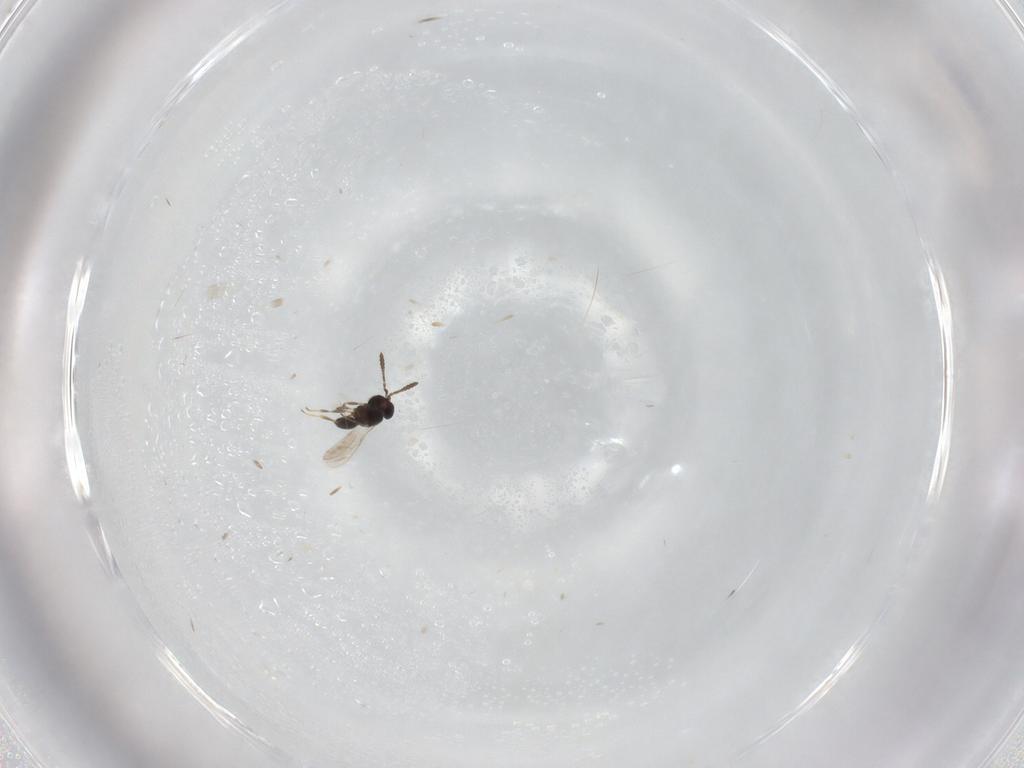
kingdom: Animalia
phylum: Arthropoda
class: Insecta
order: Hymenoptera
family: Scelionidae
